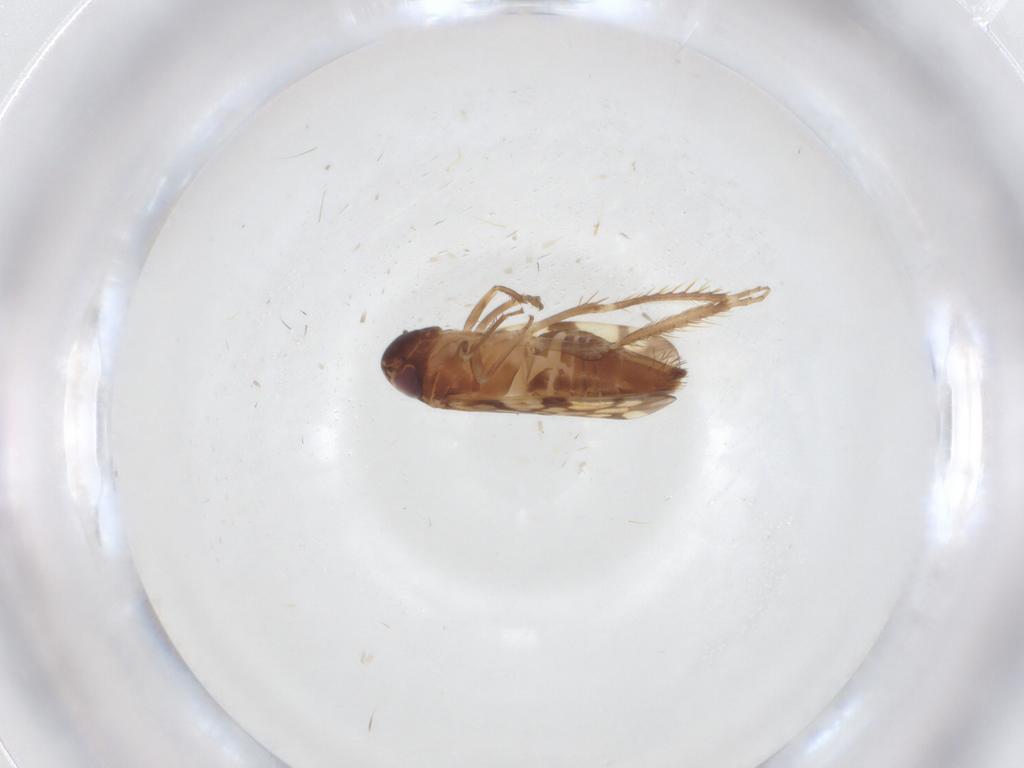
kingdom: Animalia
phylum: Arthropoda
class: Insecta
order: Hemiptera
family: Cicadellidae
